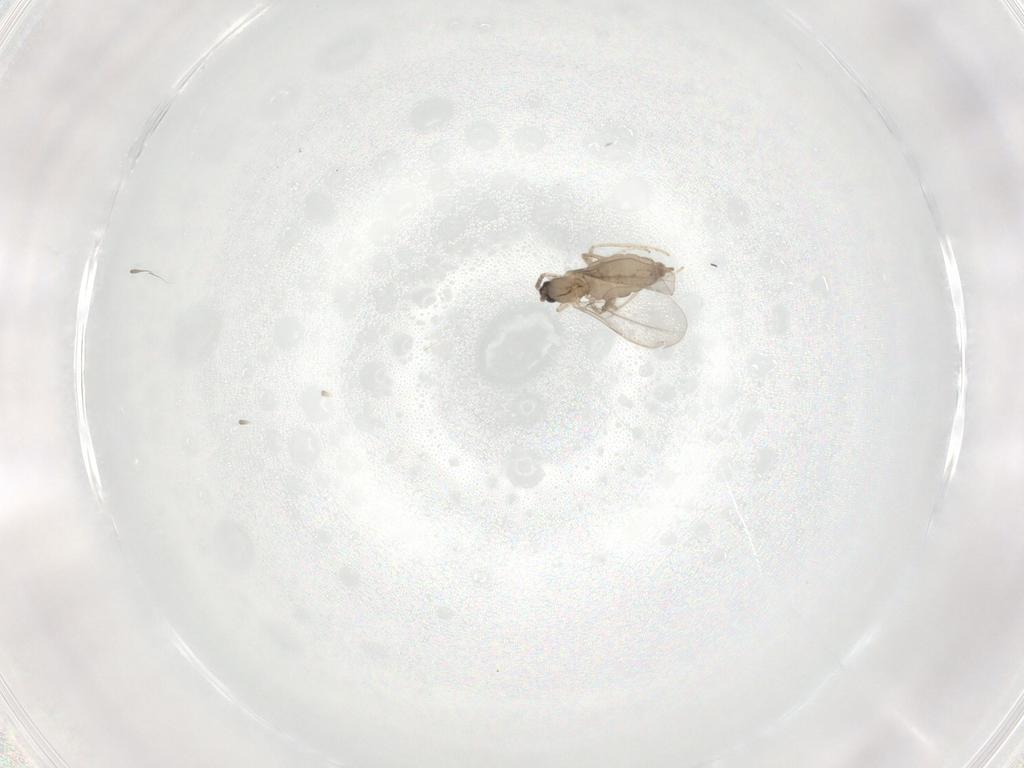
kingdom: Animalia
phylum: Arthropoda
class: Insecta
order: Diptera
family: Cecidomyiidae
